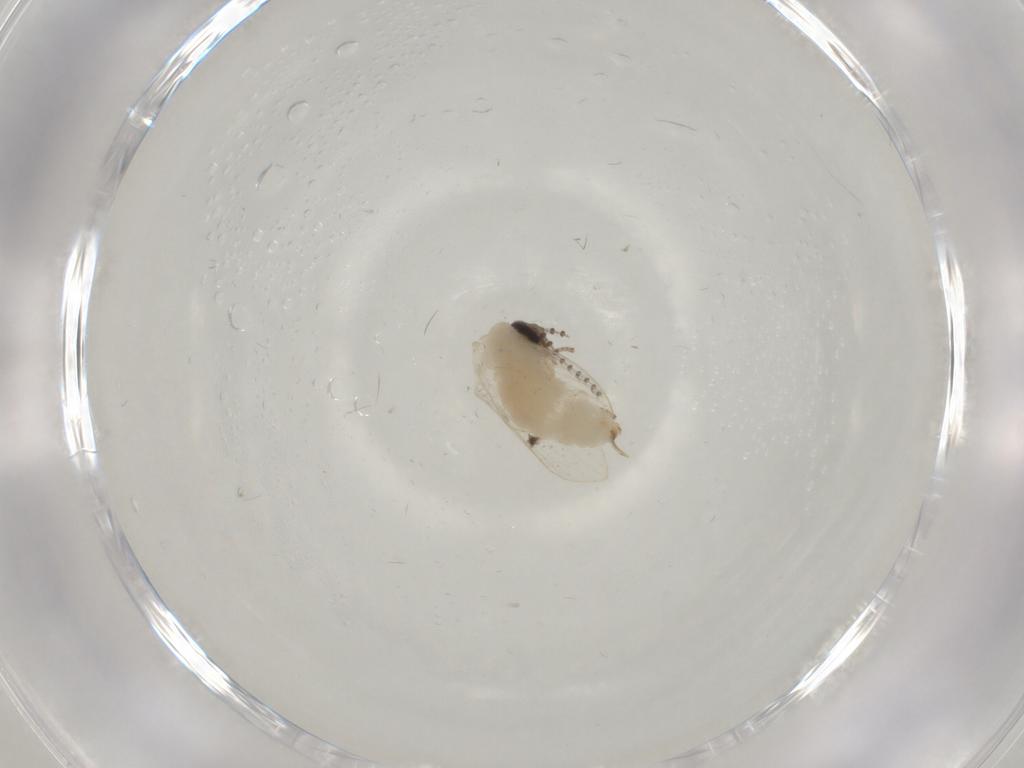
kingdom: Animalia
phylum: Arthropoda
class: Insecta
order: Diptera
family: Psychodidae
